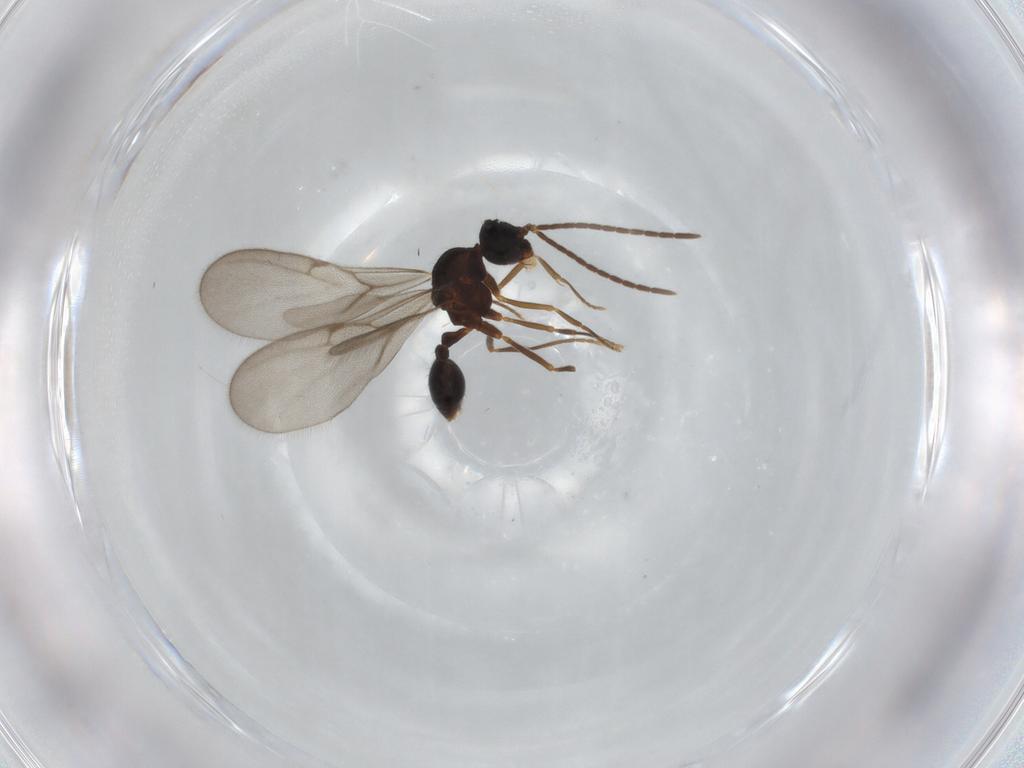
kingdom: Animalia
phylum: Arthropoda
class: Insecta
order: Hymenoptera
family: Formicidae
